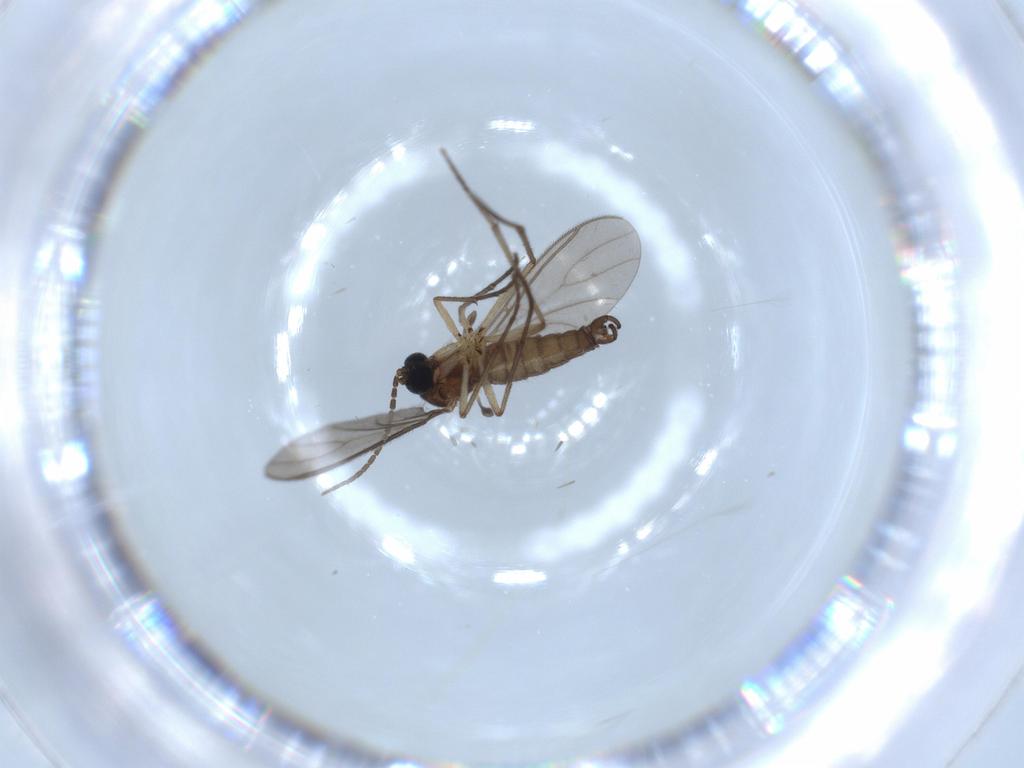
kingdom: Animalia
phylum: Arthropoda
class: Insecta
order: Diptera
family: Sciaridae
